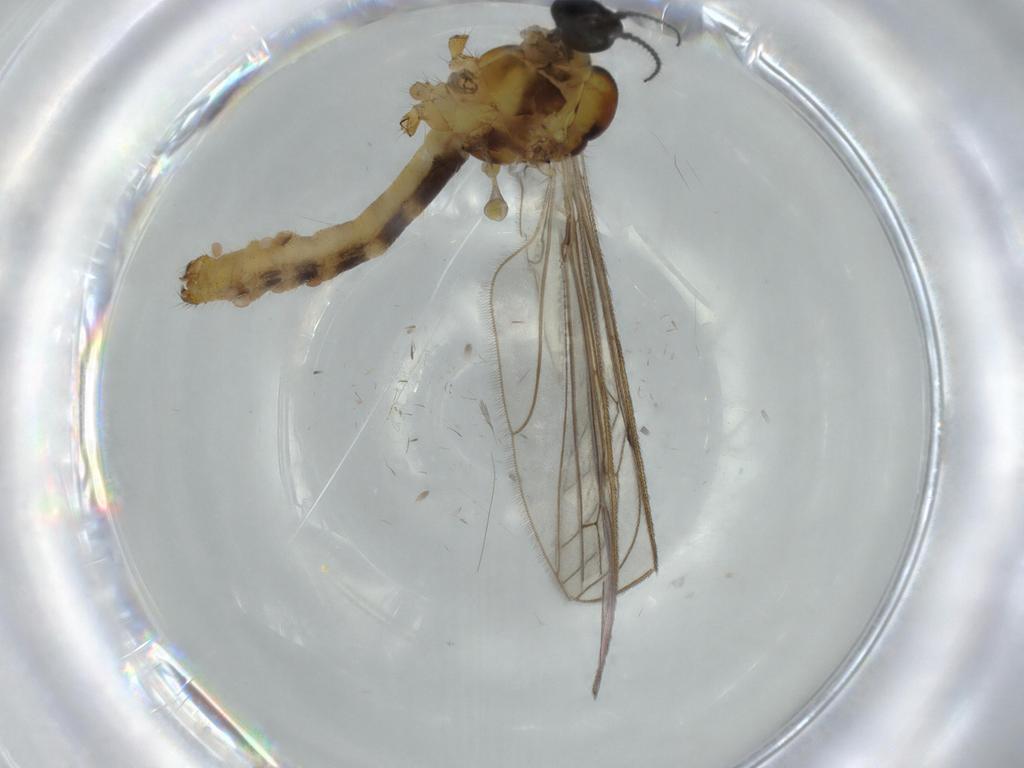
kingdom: Animalia
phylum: Arthropoda
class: Insecta
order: Diptera
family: Limoniidae
